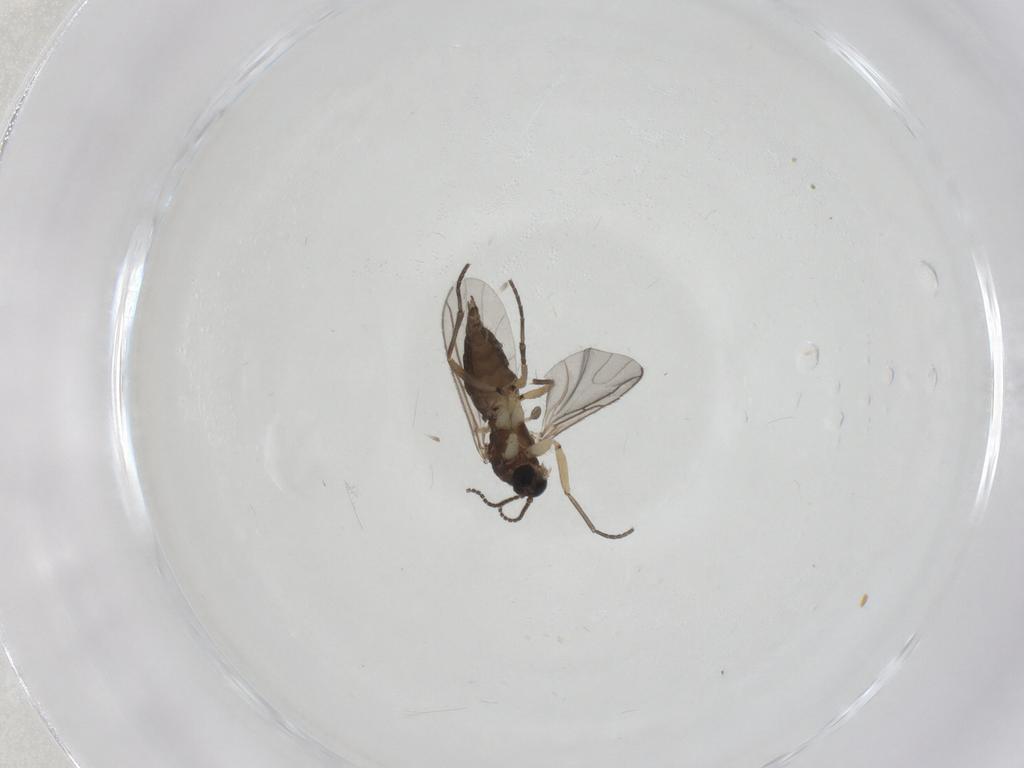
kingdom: Animalia
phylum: Arthropoda
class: Insecta
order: Diptera
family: Sciaridae
